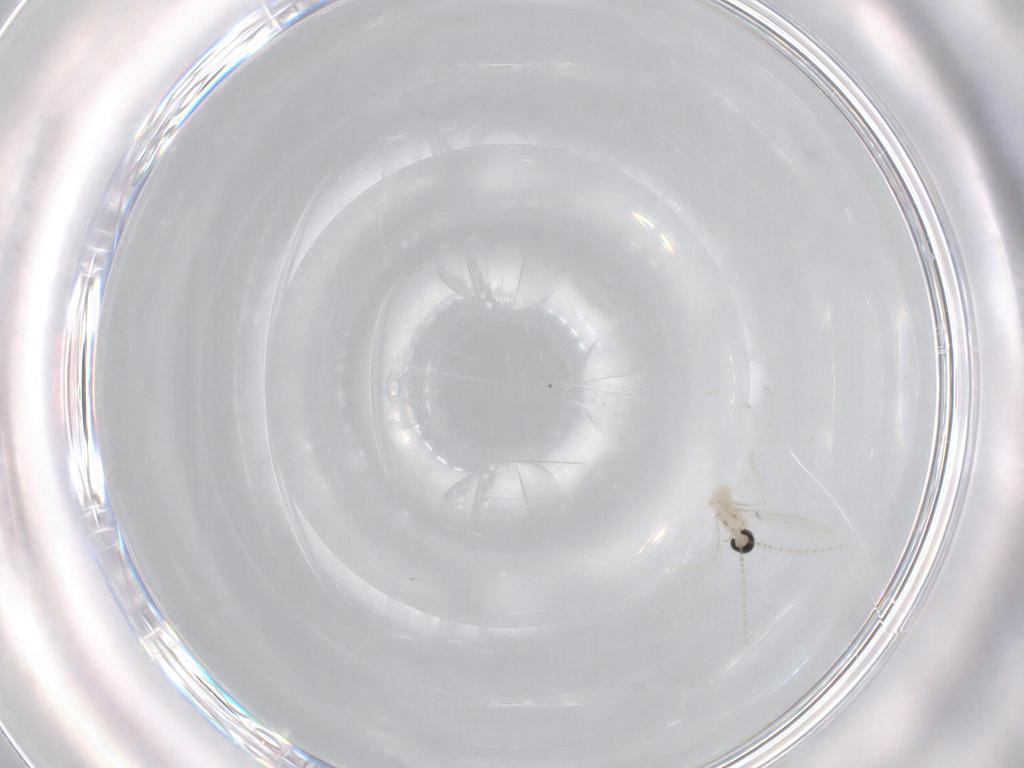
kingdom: Animalia
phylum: Arthropoda
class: Insecta
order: Diptera
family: Cecidomyiidae
